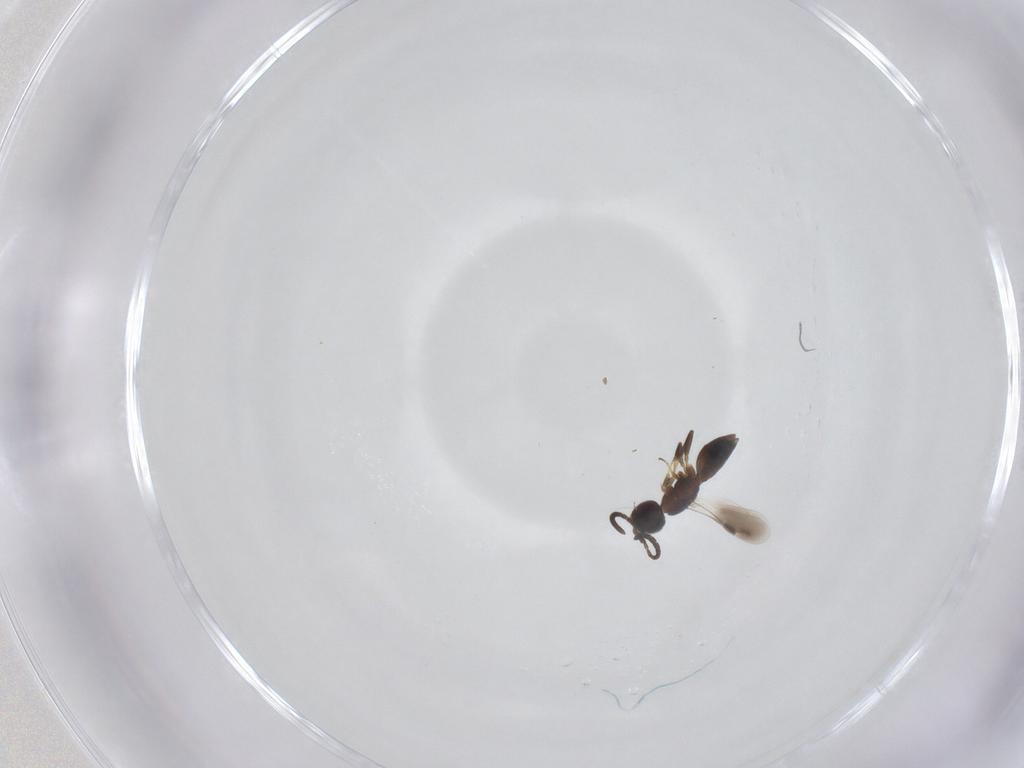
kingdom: Animalia
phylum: Arthropoda
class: Insecta
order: Hymenoptera
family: Megaspilidae
